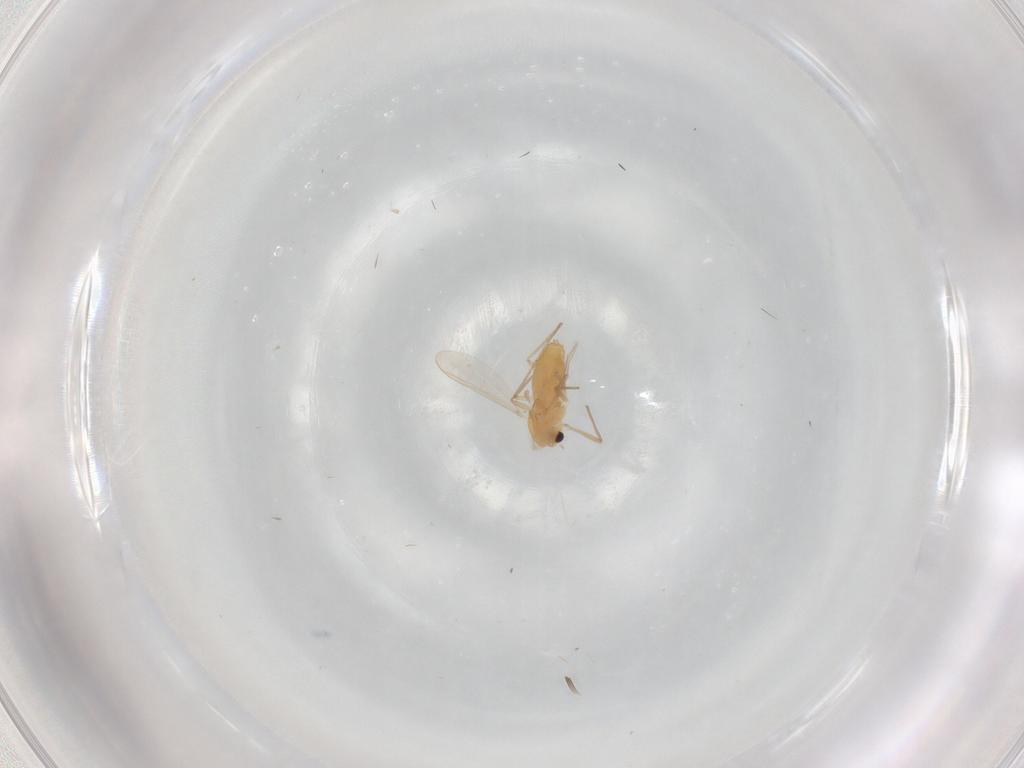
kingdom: Animalia
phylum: Arthropoda
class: Insecta
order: Diptera
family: Chironomidae
